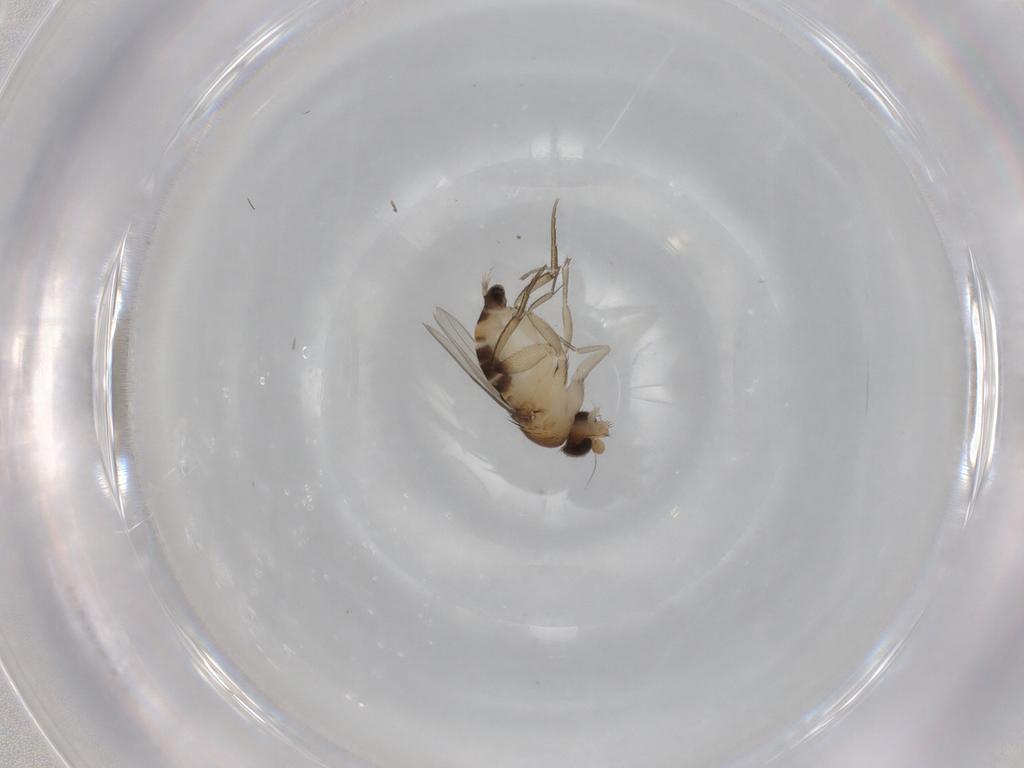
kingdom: Animalia
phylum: Arthropoda
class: Insecta
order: Diptera
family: Phoridae
